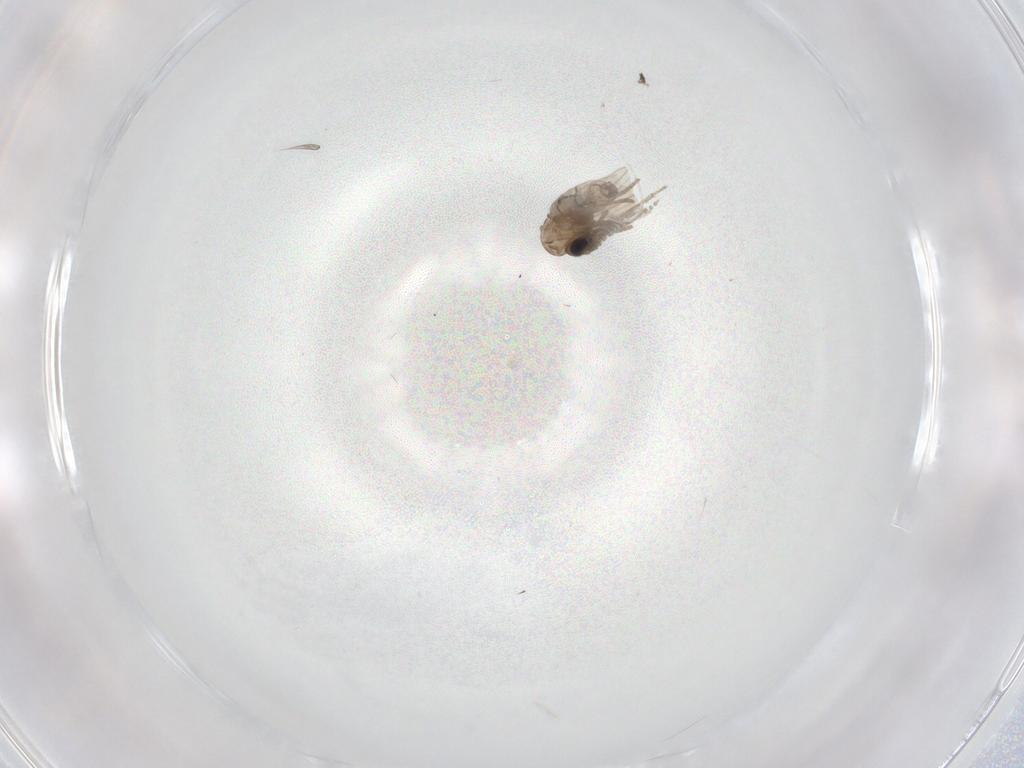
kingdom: Animalia
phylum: Arthropoda
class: Insecta
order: Diptera
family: Psychodidae
